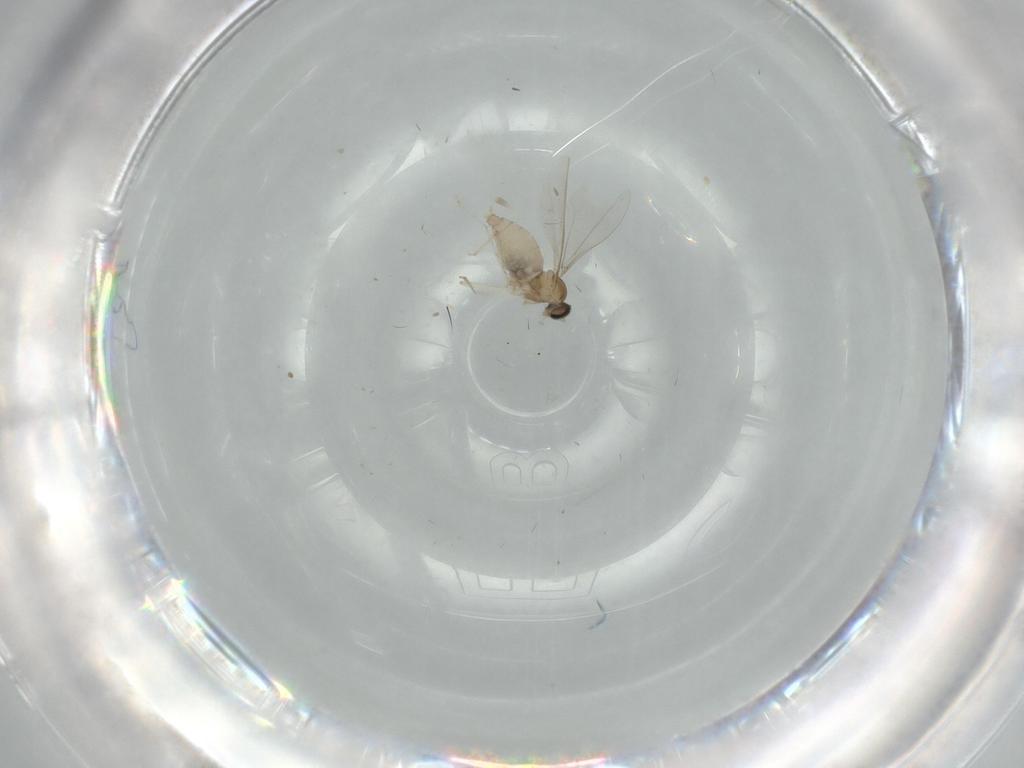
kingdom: Animalia
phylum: Arthropoda
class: Insecta
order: Diptera
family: Cecidomyiidae
